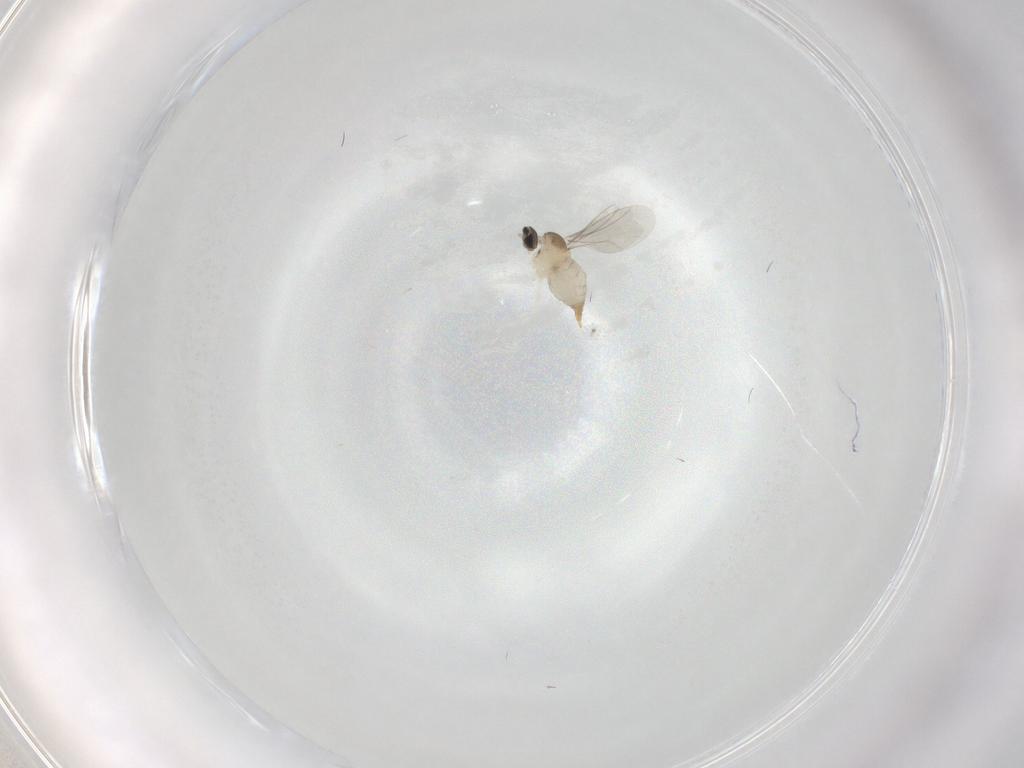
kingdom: Animalia
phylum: Arthropoda
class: Insecta
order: Diptera
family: Cecidomyiidae
